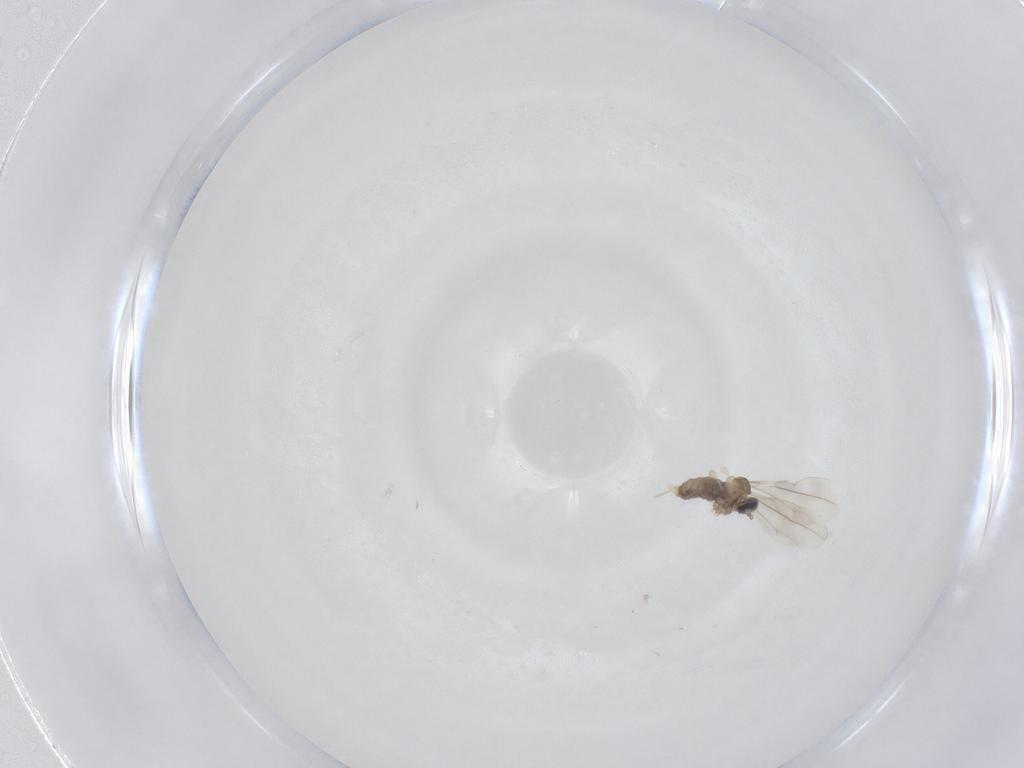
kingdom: Animalia
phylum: Arthropoda
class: Insecta
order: Diptera
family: Cecidomyiidae
